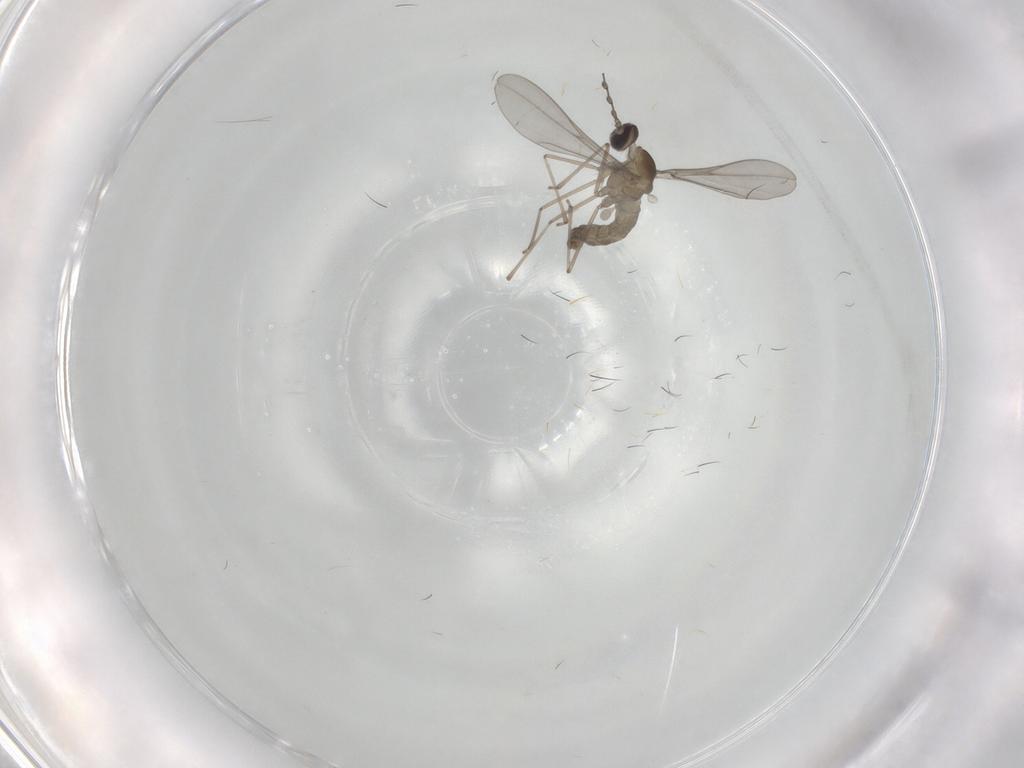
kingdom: Animalia
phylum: Arthropoda
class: Insecta
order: Diptera
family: Cecidomyiidae
